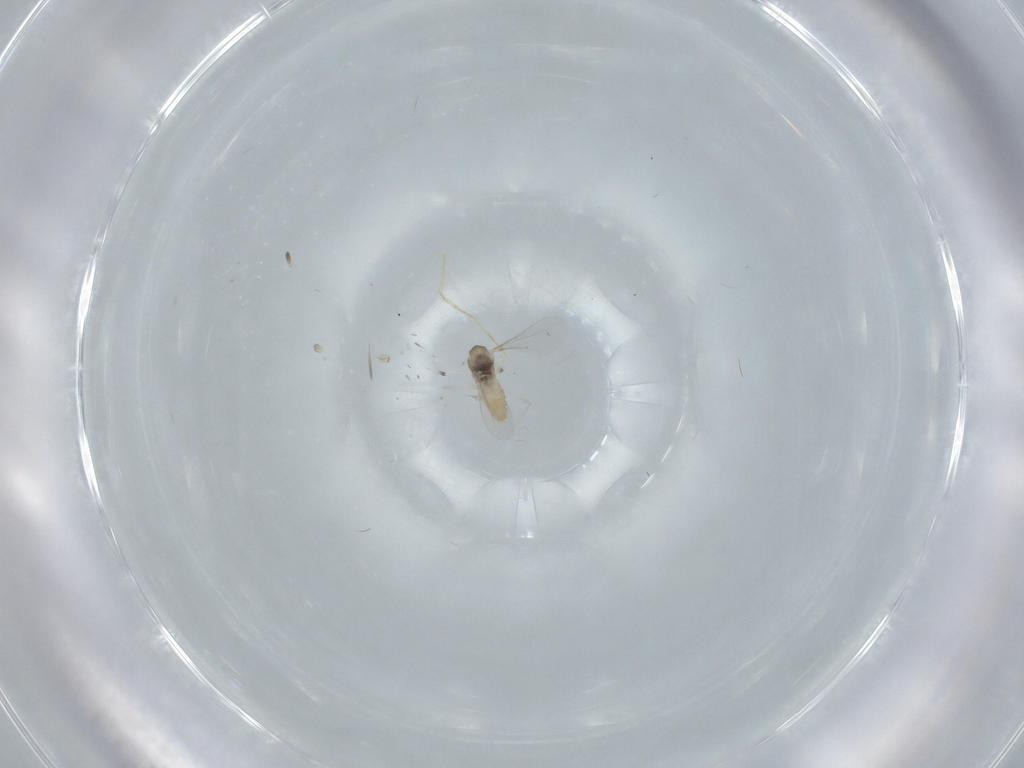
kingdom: Animalia
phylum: Arthropoda
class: Insecta
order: Diptera
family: Cecidomyiidae
